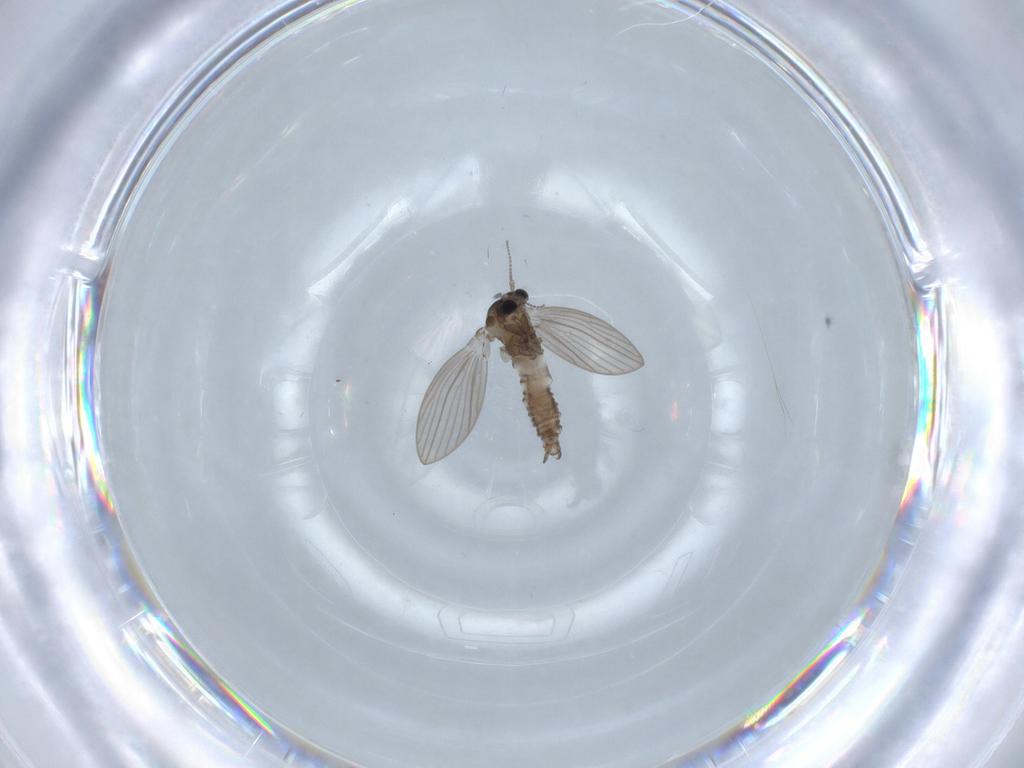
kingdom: Animalia
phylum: Arthropoda
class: Insecta
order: Diptera
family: Psychodidae
